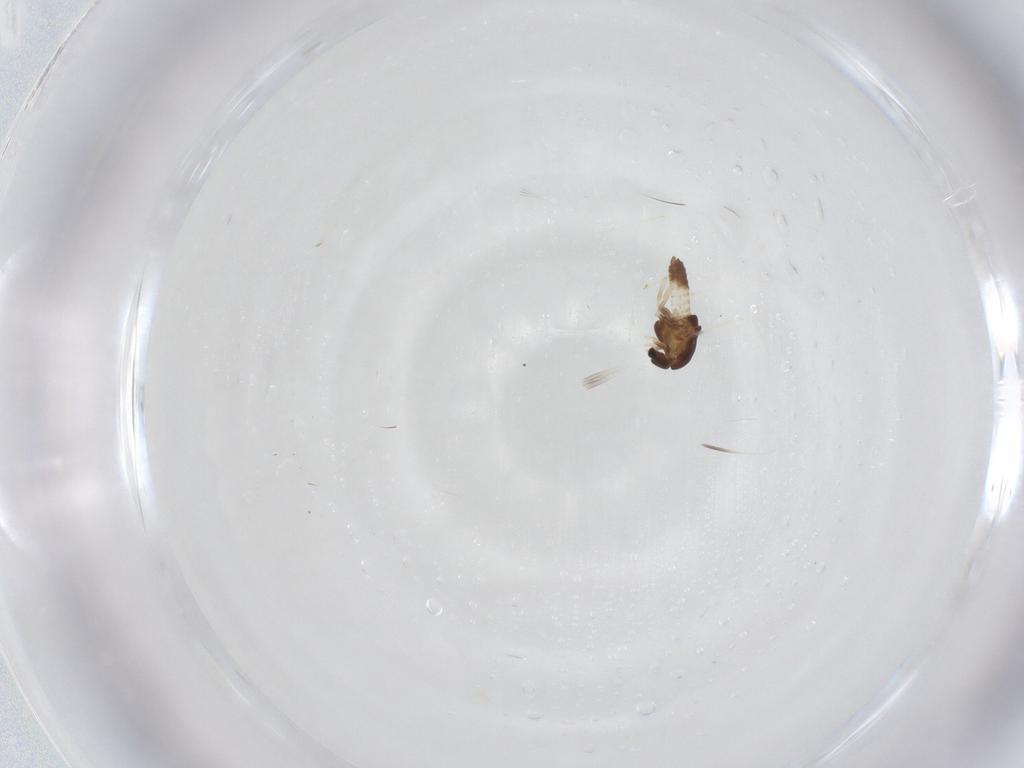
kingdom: Animalia
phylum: Arthropoda
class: Insecta
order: Diptera
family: Chironomidae
